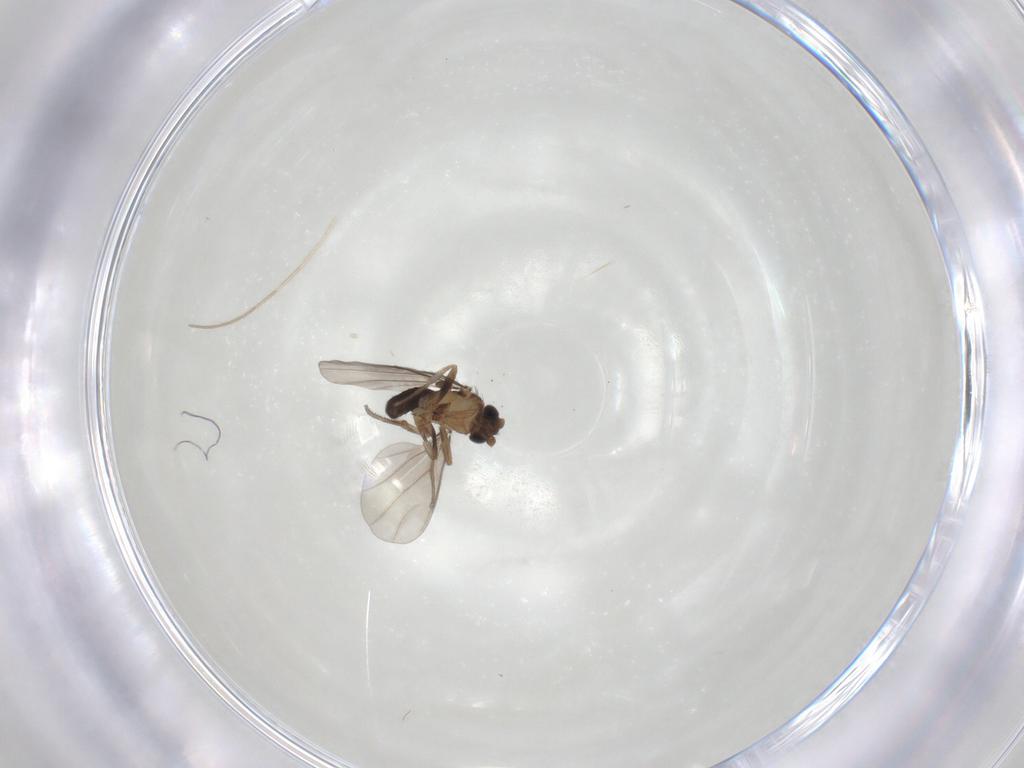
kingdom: Animalia
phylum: Arthropoda
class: Insecta
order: Diptera
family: Phoridae
